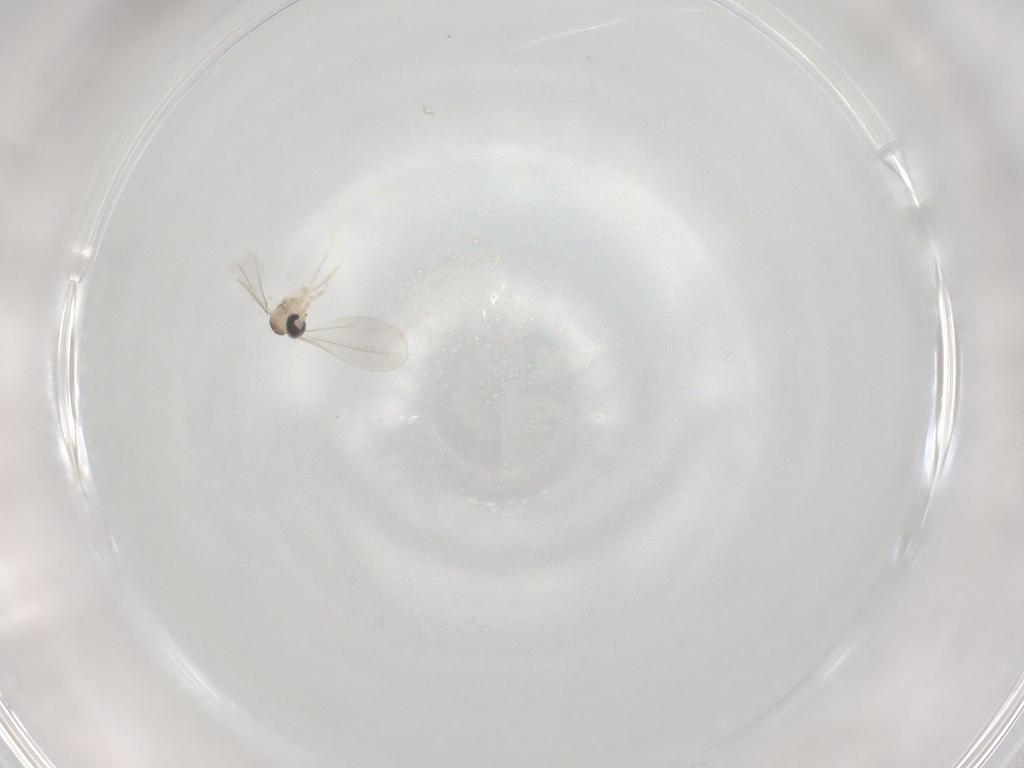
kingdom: Animalia
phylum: Arthropoda
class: Insecta
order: Diptera
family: Cecidomyiidae
